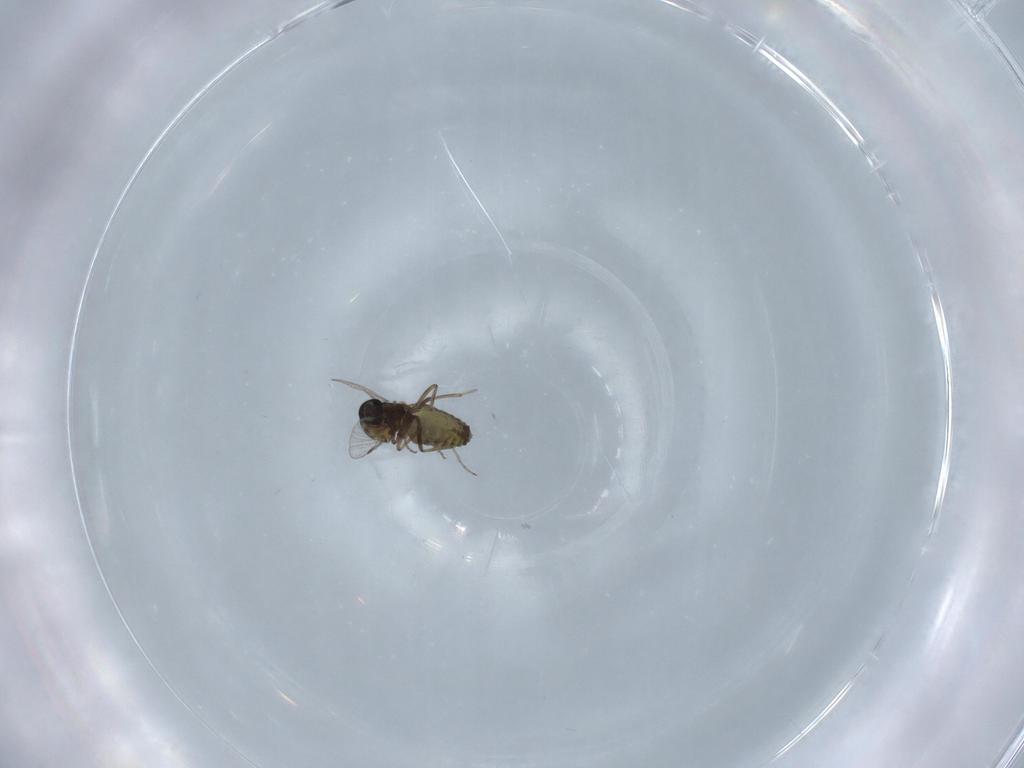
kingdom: Animalia
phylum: Arthropoda
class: Insecta
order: Diptera
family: Ceratopogonidae
